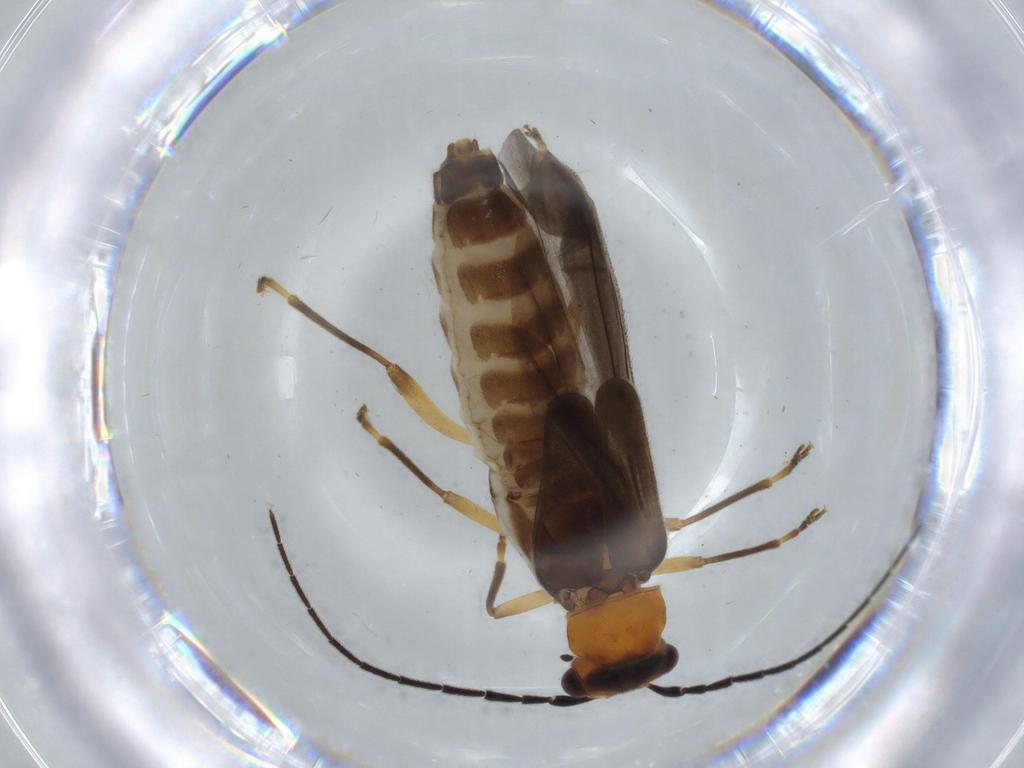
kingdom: Animalia
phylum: Arthropoda
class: Insecta
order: Coleoptera
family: Cantharidae
